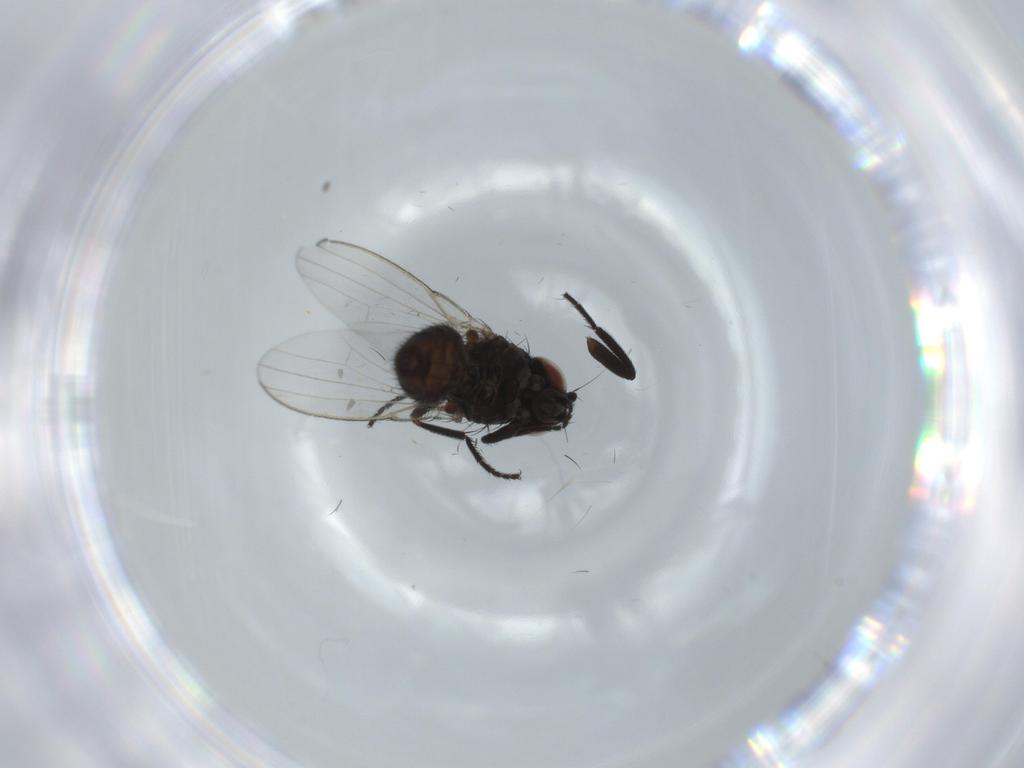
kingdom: Animalia
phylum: Arthropoda
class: Insecta
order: Diptera
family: Milichiidae
